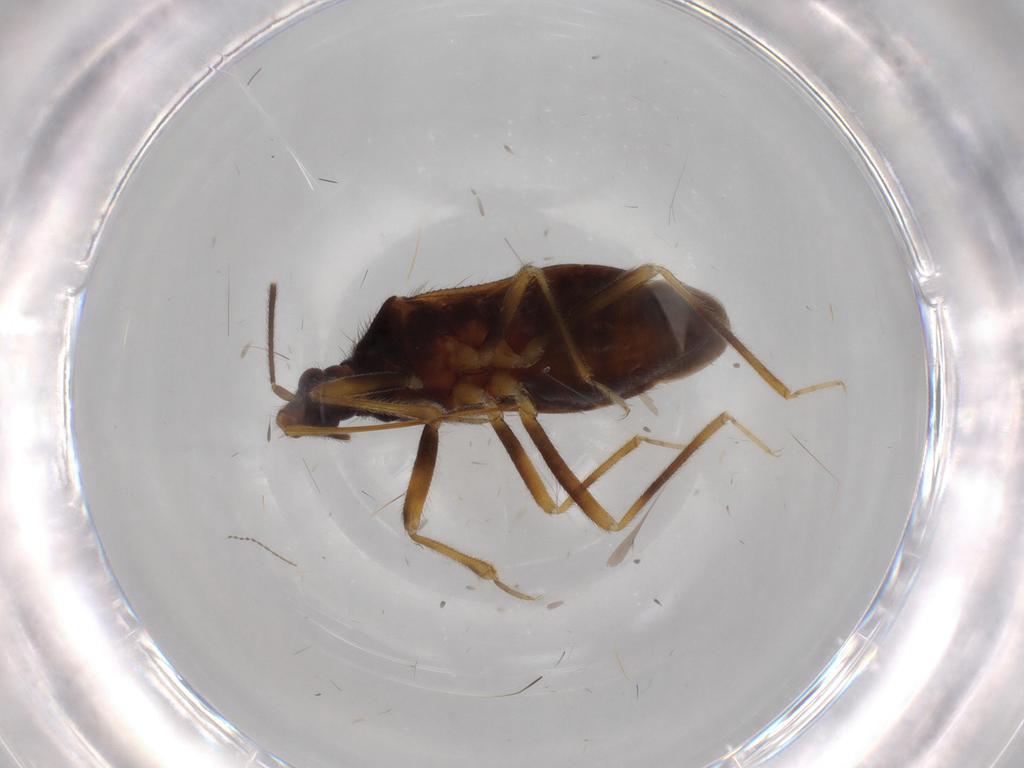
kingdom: Animalia
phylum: Arthropoda
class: Insecta
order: Hemiptera
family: Anthocoridae
